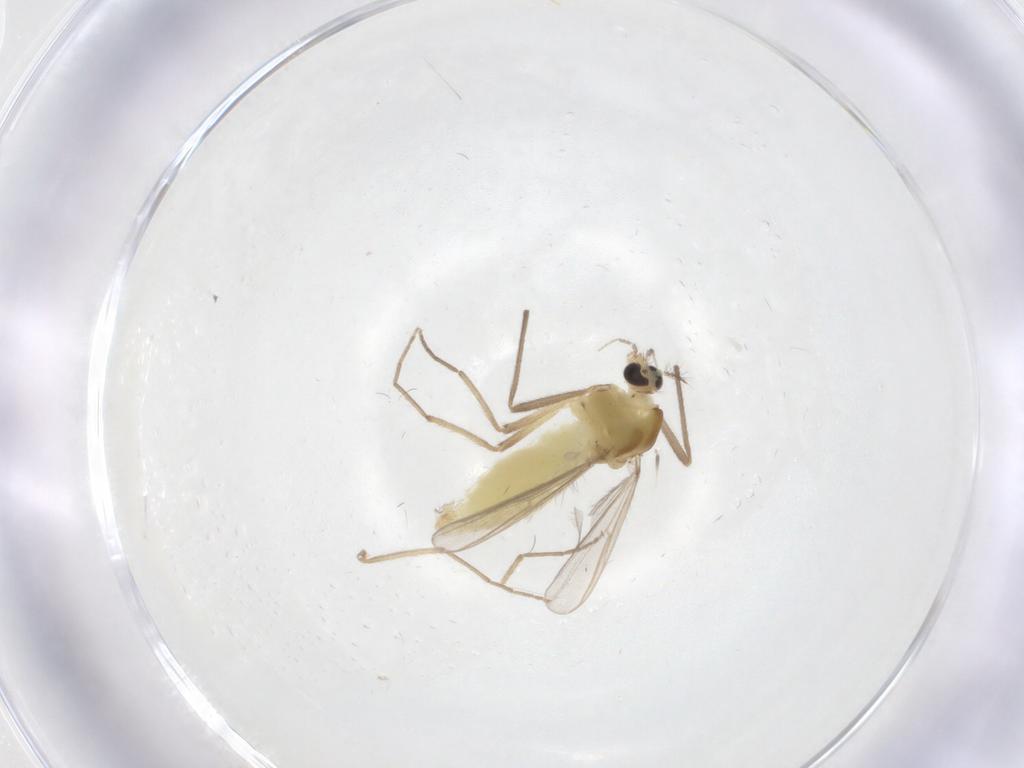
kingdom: Animalia
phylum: Arthropoda
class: Insecta
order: Diptera
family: Chironomidae
